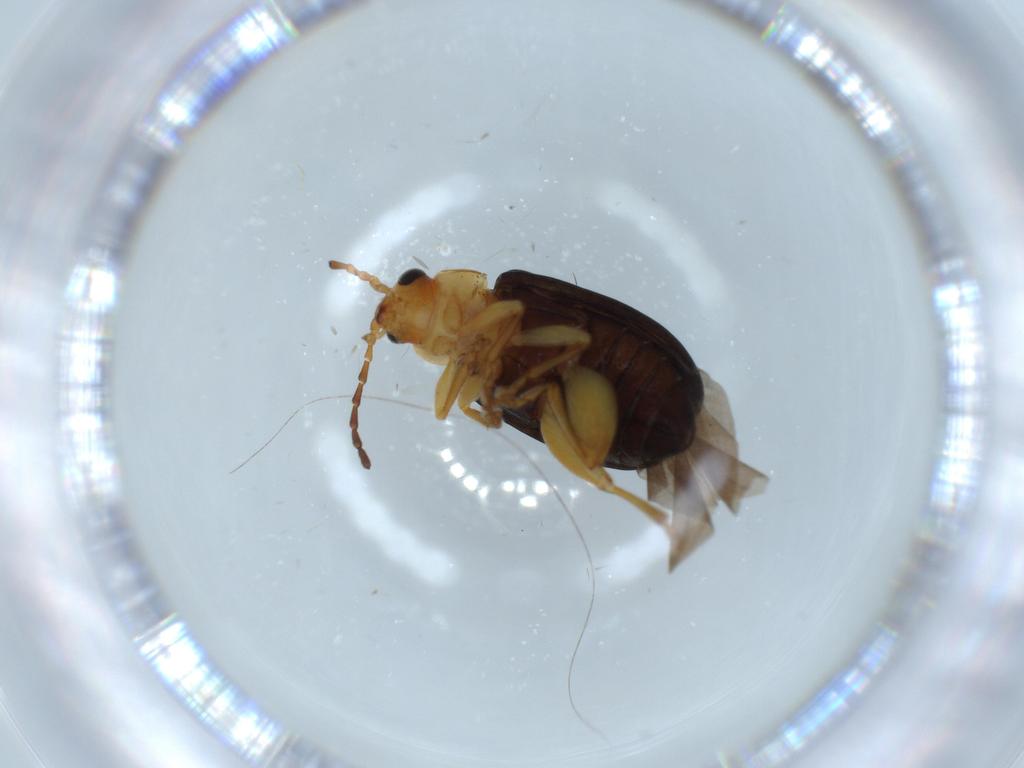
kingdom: Animalia
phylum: Arthropoda
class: Insecta
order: Coleoptera
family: Chrysomelidae
